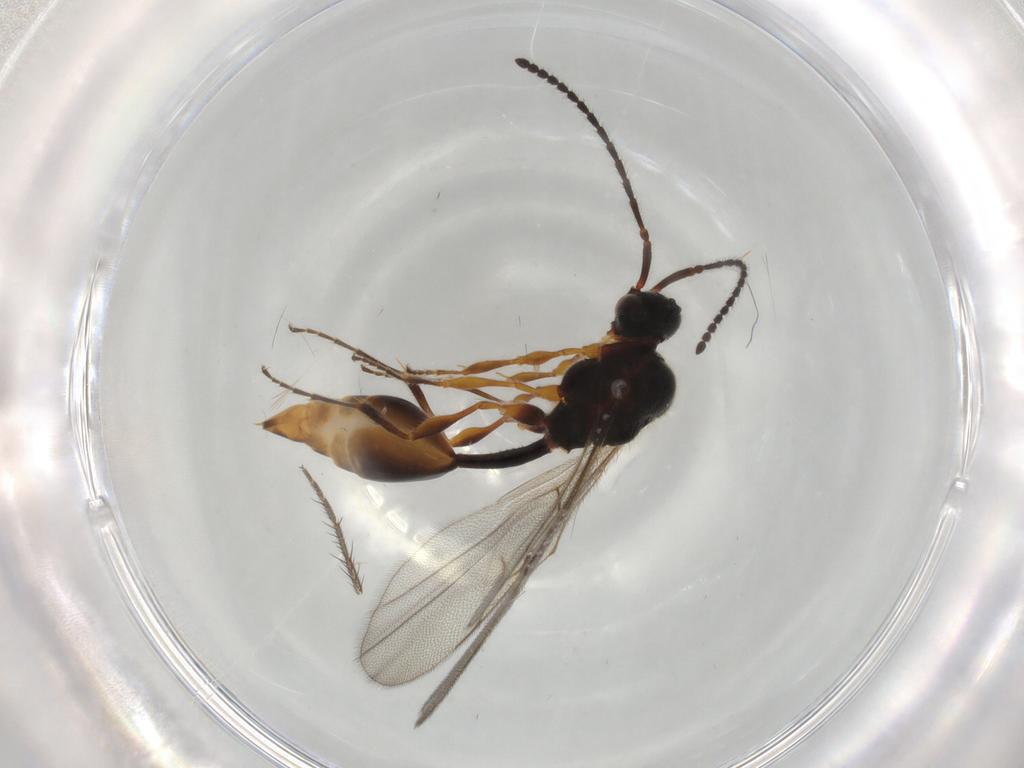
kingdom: Animalia
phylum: Arthropoda
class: Insecta
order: Hymenoptera
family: Diapriidae
